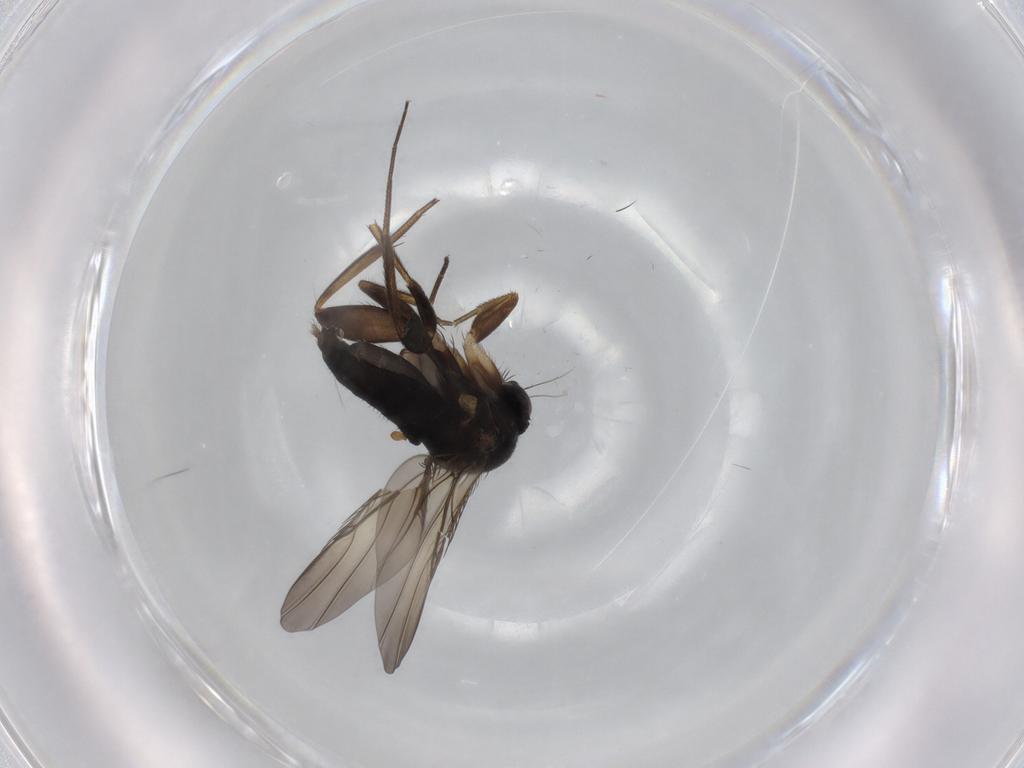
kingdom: Animalia
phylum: Arthropoda
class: Insecta
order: Diptera
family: Phoridae
